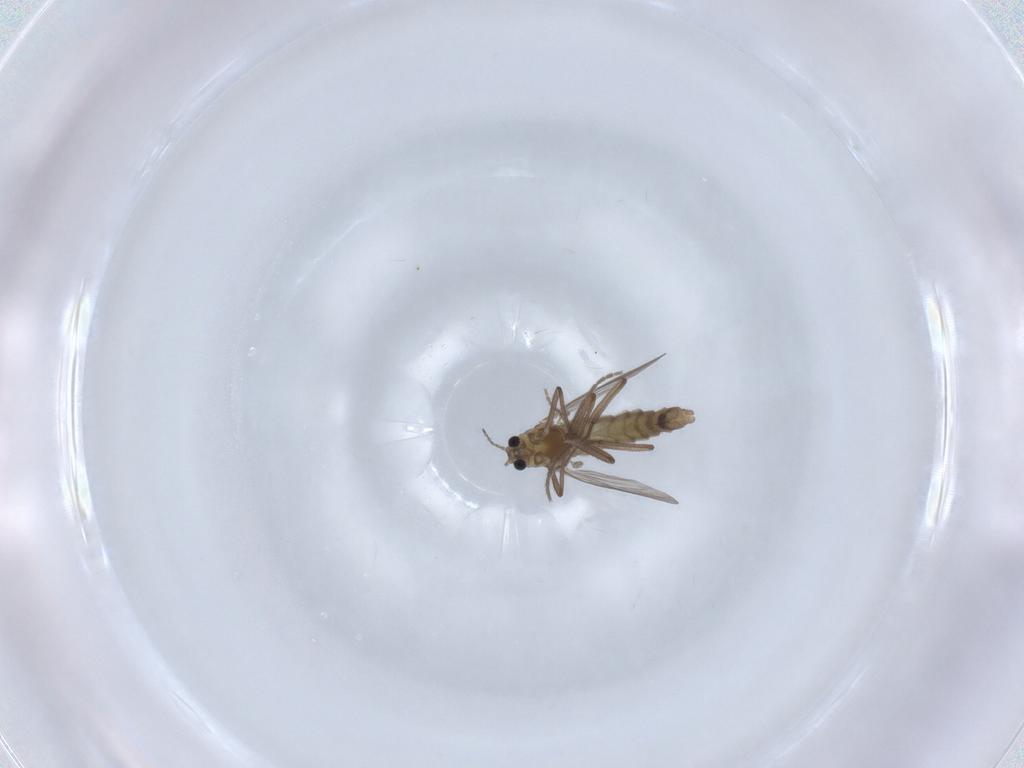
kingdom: Animalia
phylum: Arthropoda
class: Insecta
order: Diptera
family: Chironomidae
